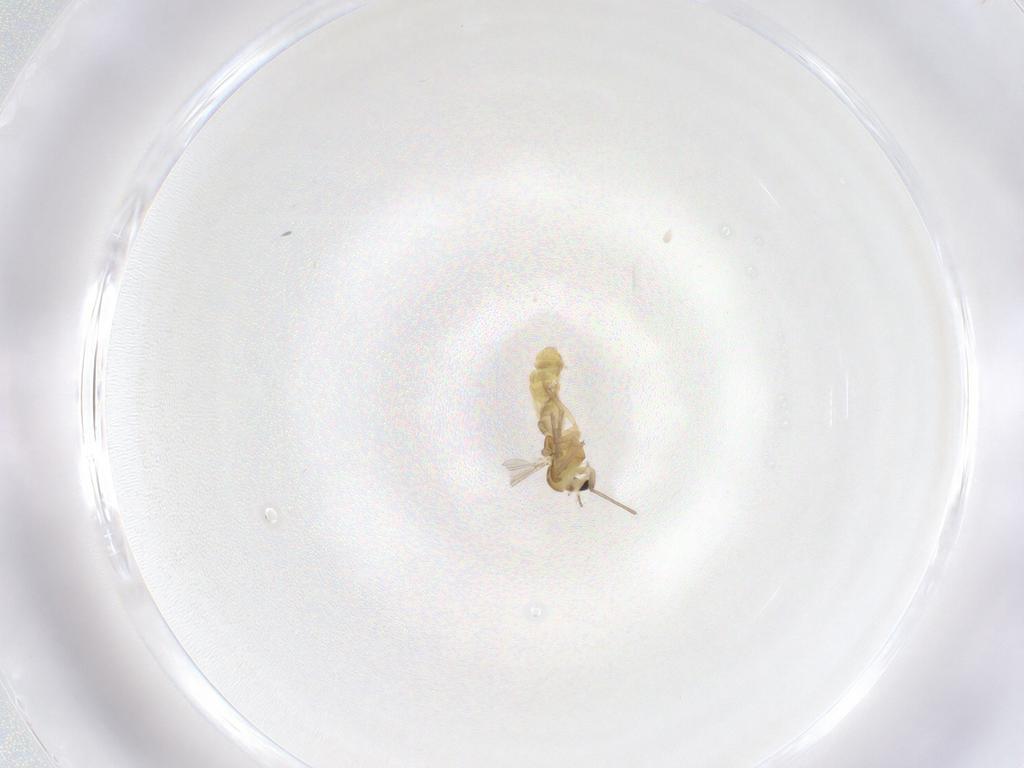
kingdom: Animalia
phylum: Arthropoda
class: Insecta
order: Diptera
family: Chironomidae
